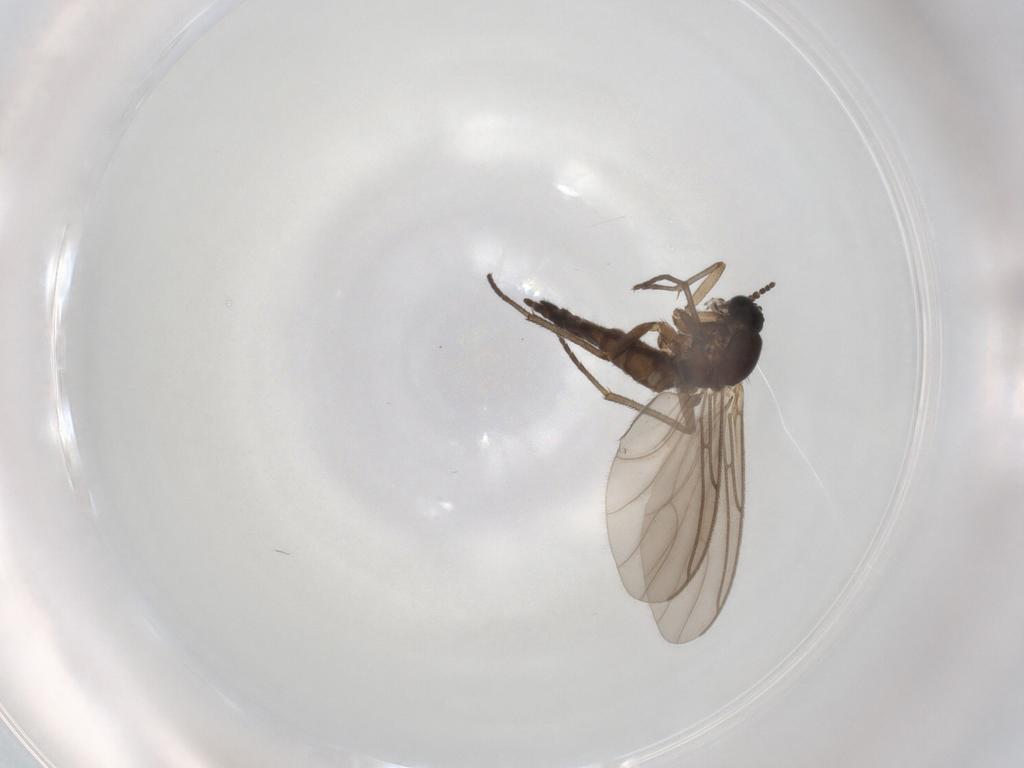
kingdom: Animalia
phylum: Arthropoda
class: Insecta
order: Diptera
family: Sciaridae
